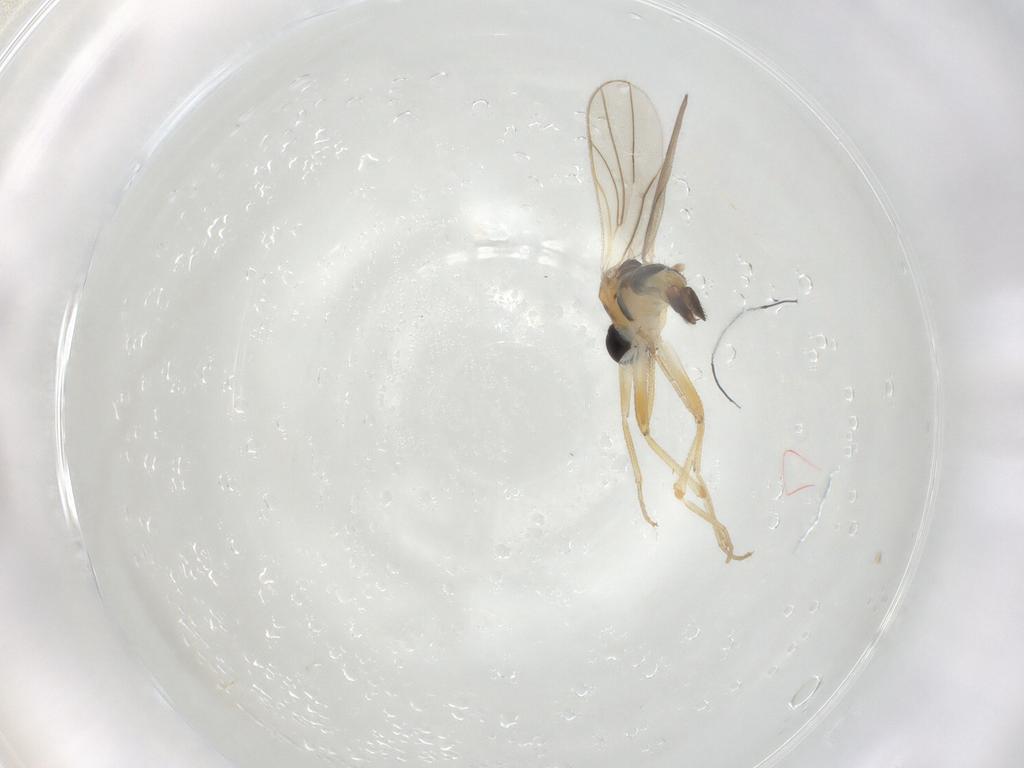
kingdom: Animalia
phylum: Arthropoda
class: Insecta
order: Diptera
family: Hybotidae
